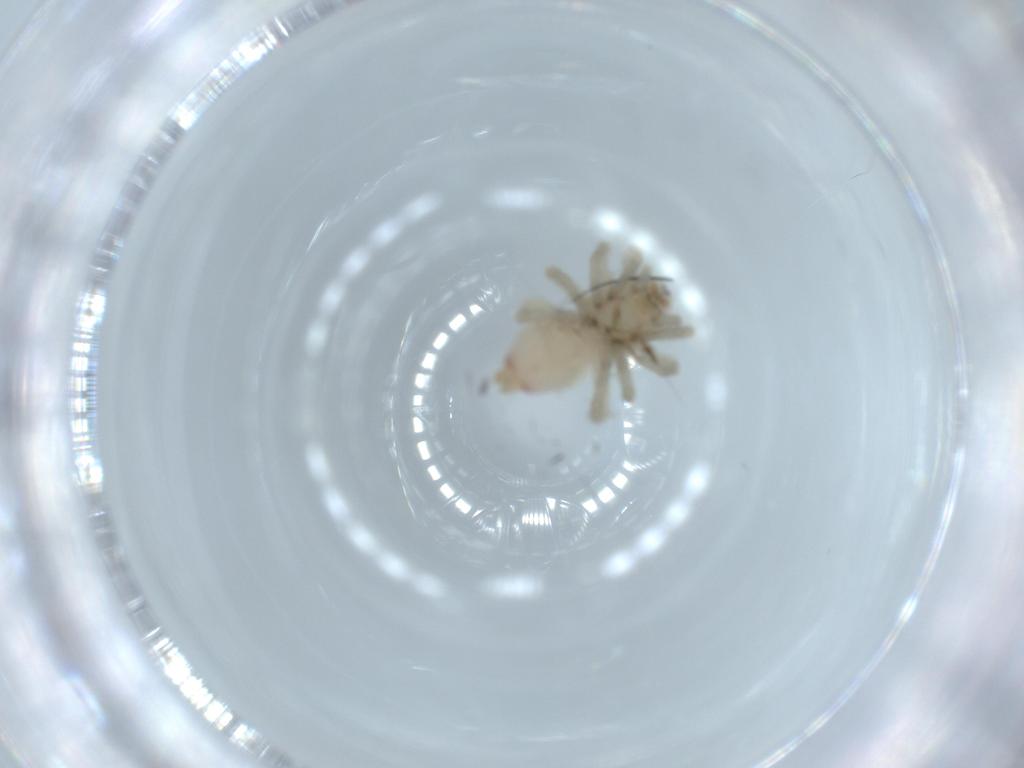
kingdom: Animalia
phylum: Arthropoda
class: Arachnida
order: Araneae
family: Clubionidae
